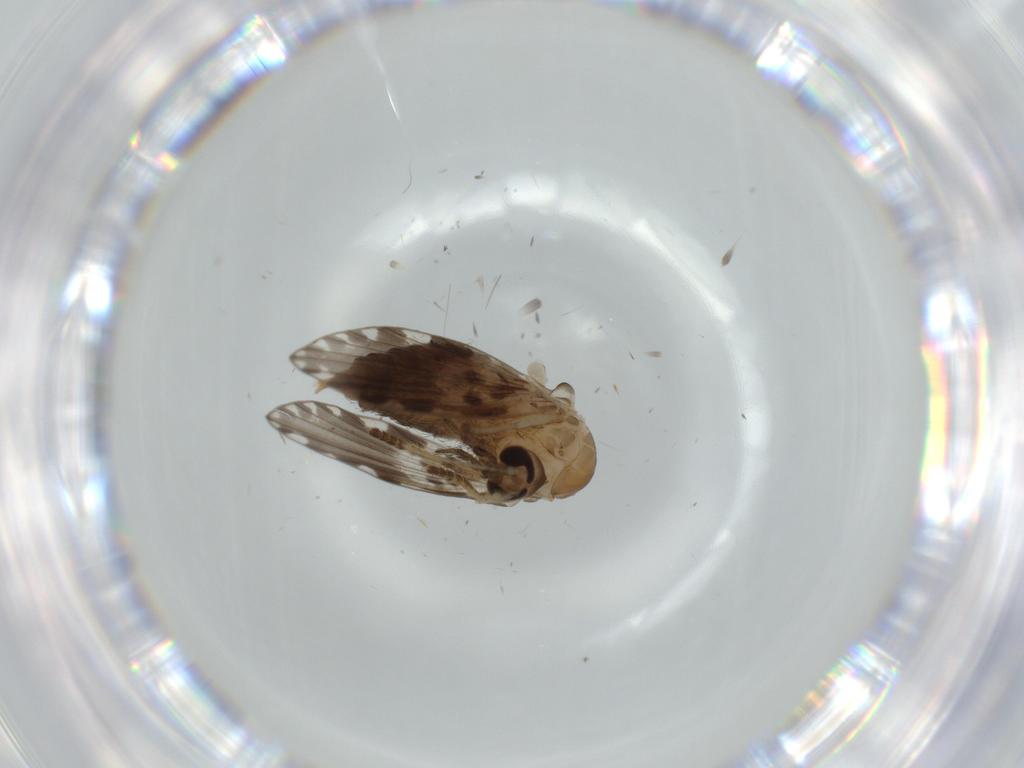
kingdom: Animalia
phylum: Arthropoda
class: Insecta
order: Diptera
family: Psychodidae
